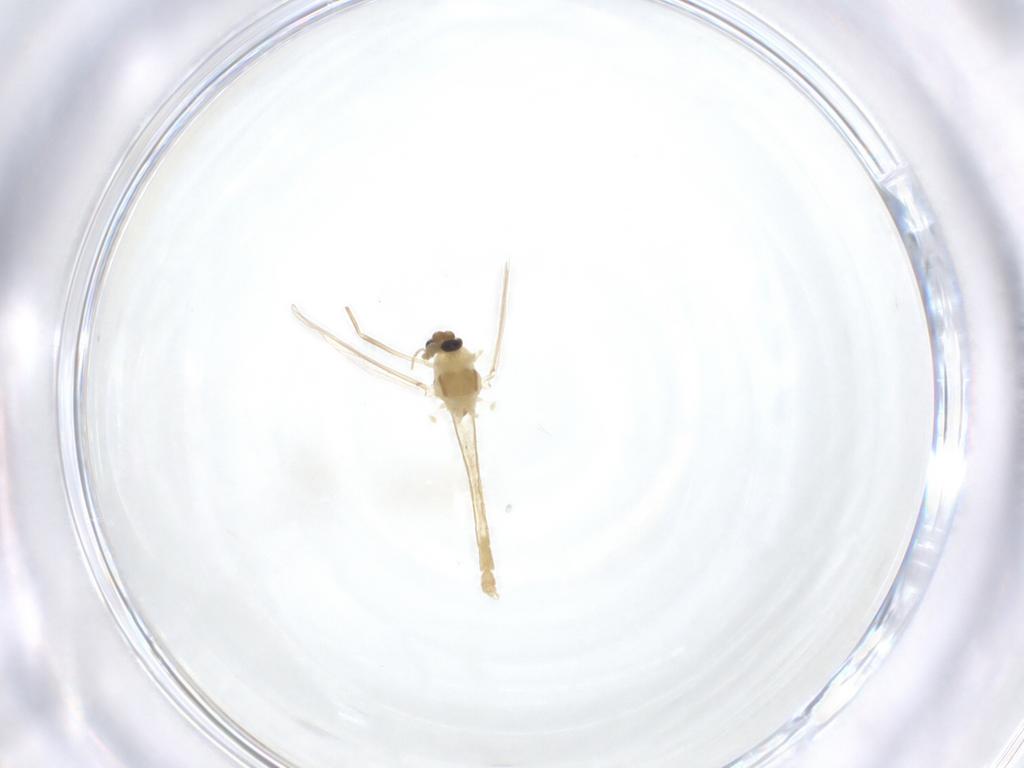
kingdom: Animalia
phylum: Arthropoda
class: Insecta
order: Diptera
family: Chironomidae
